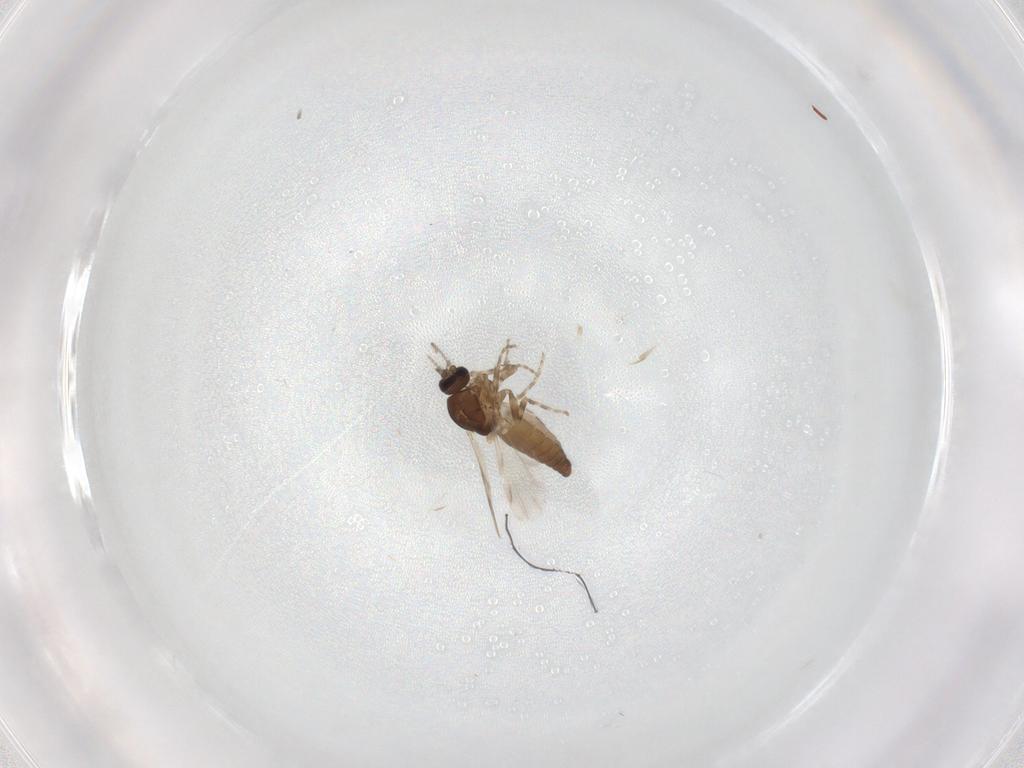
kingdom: Animalia
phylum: Arthropoda
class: Insecta
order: Diptera
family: Ceratopogonidae
